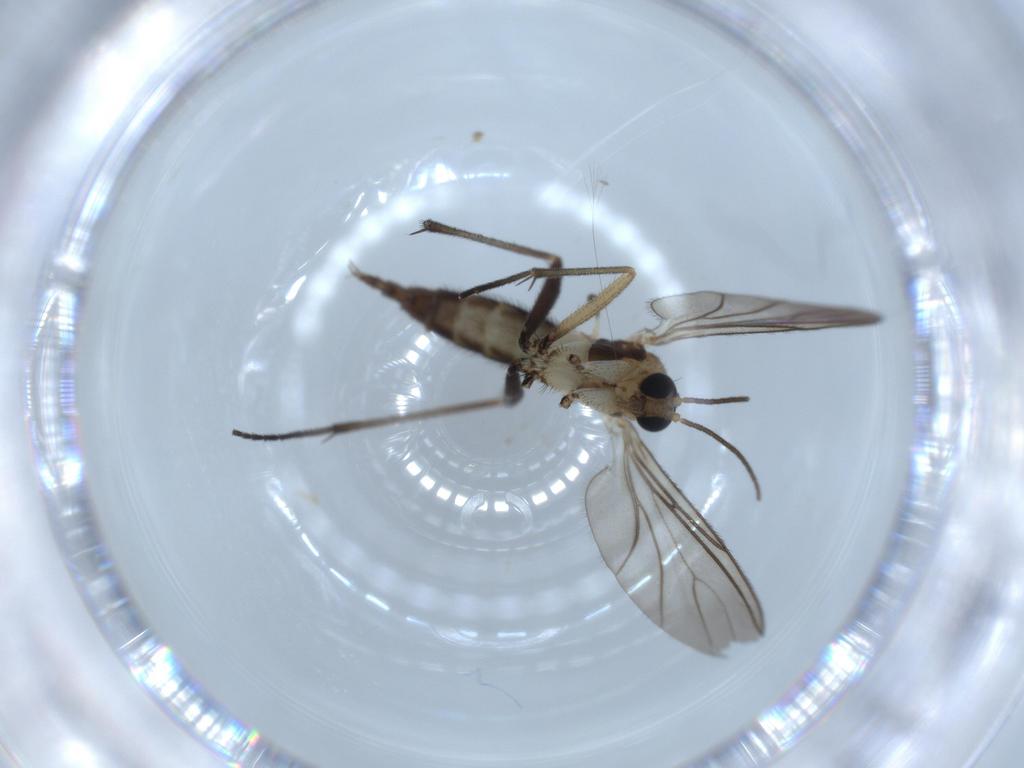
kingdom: Animalia
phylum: Arthropoda
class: Insecta
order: Diptera
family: Sciaridae
